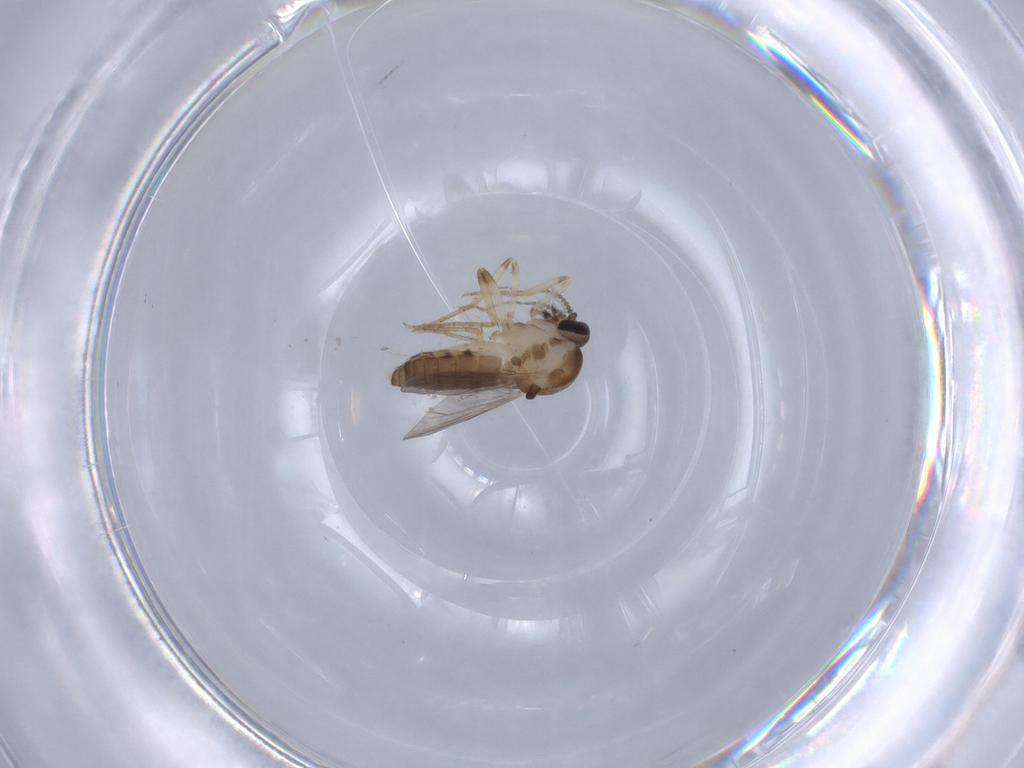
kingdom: Animalia
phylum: Arthropoda
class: Insecta
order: Diptera
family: Ceratopogonidae
